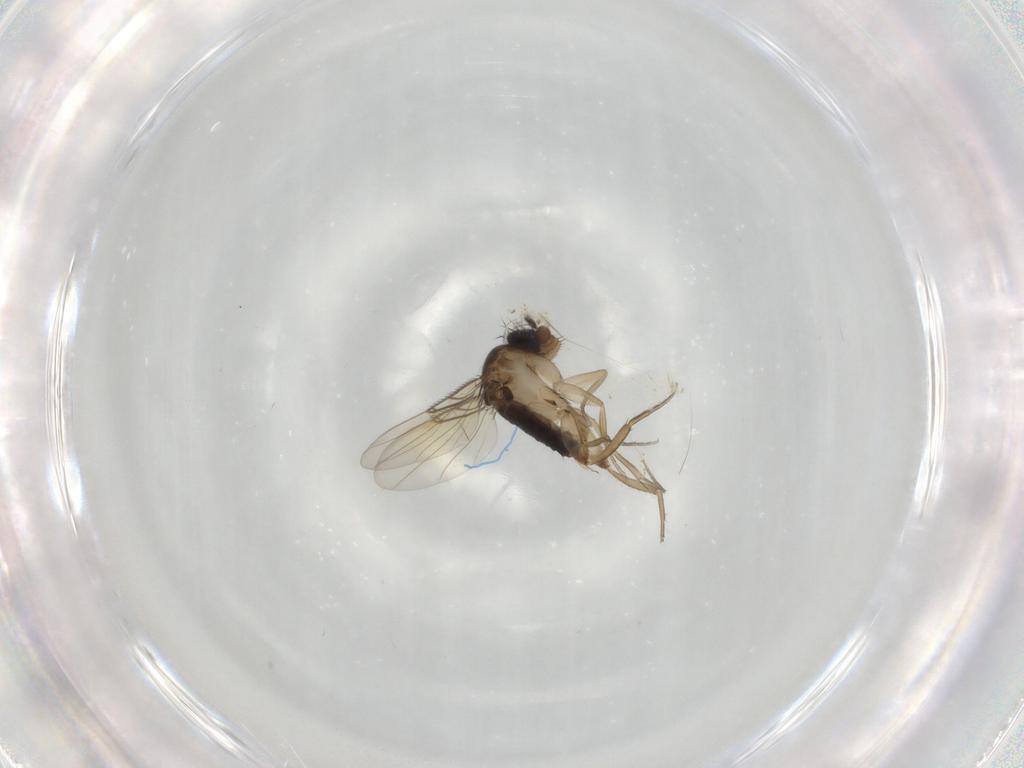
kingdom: Animalia
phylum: Arthropoda
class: Insecta
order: Diptera
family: Phoridae
